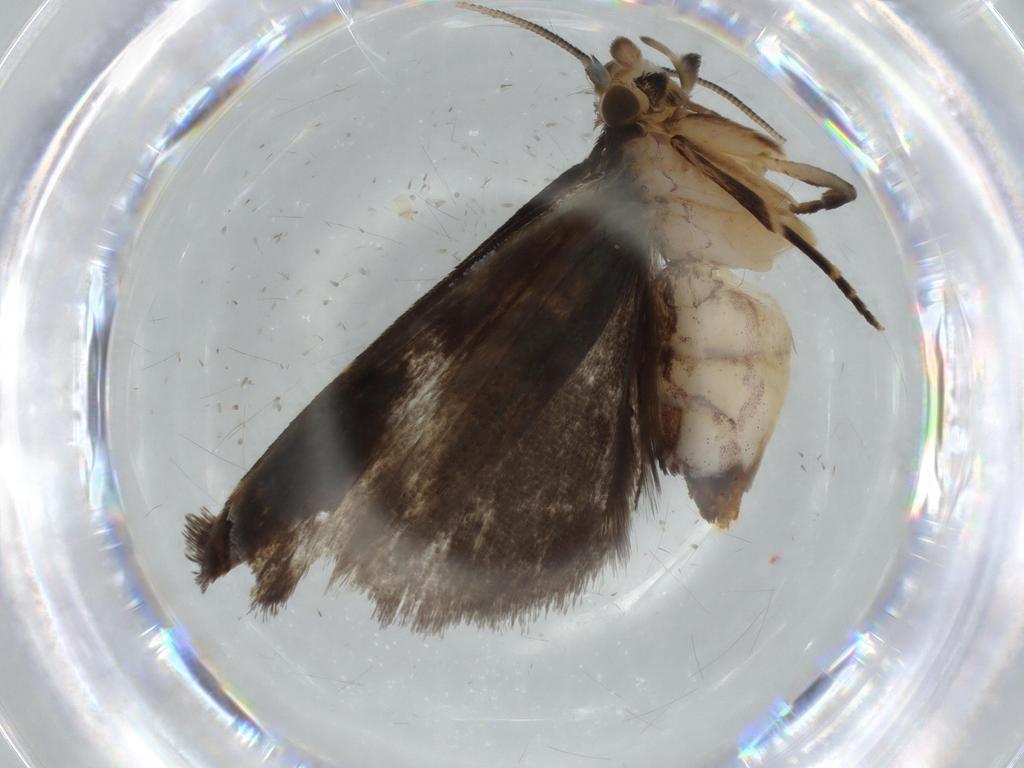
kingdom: Animalia
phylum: Arthropoda
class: Insecta
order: Lepidoptera
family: Dryadaulidae
